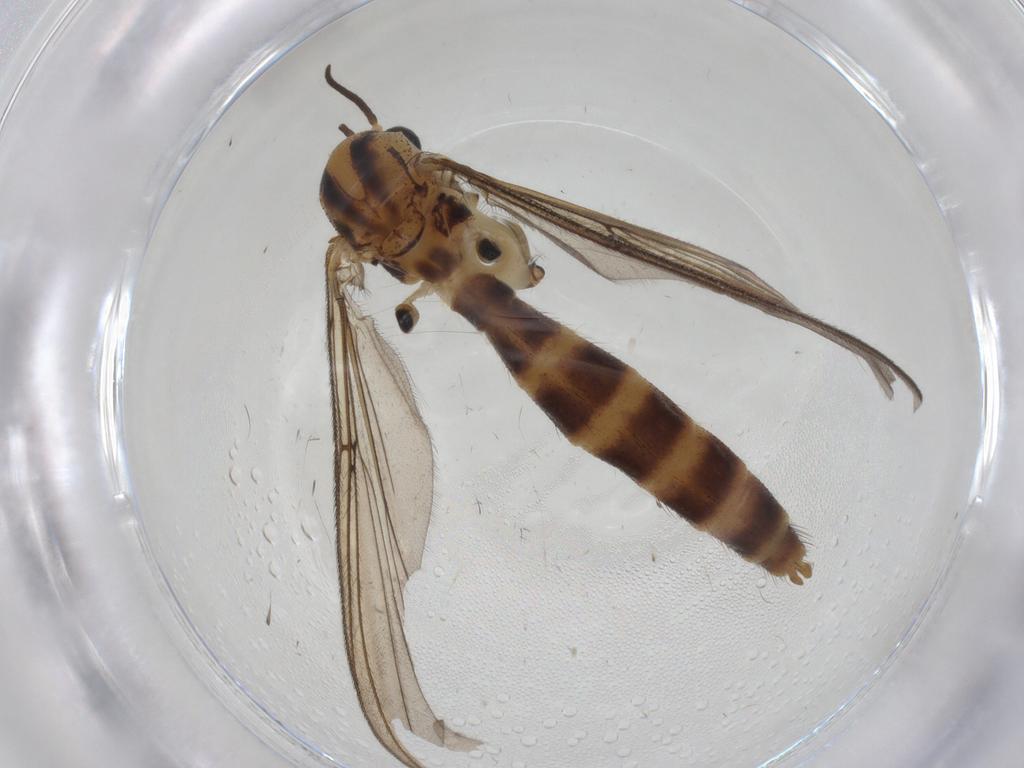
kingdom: Animalia
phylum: Arthropoda
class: Insecta
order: Diptera
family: Mycetophilidae
